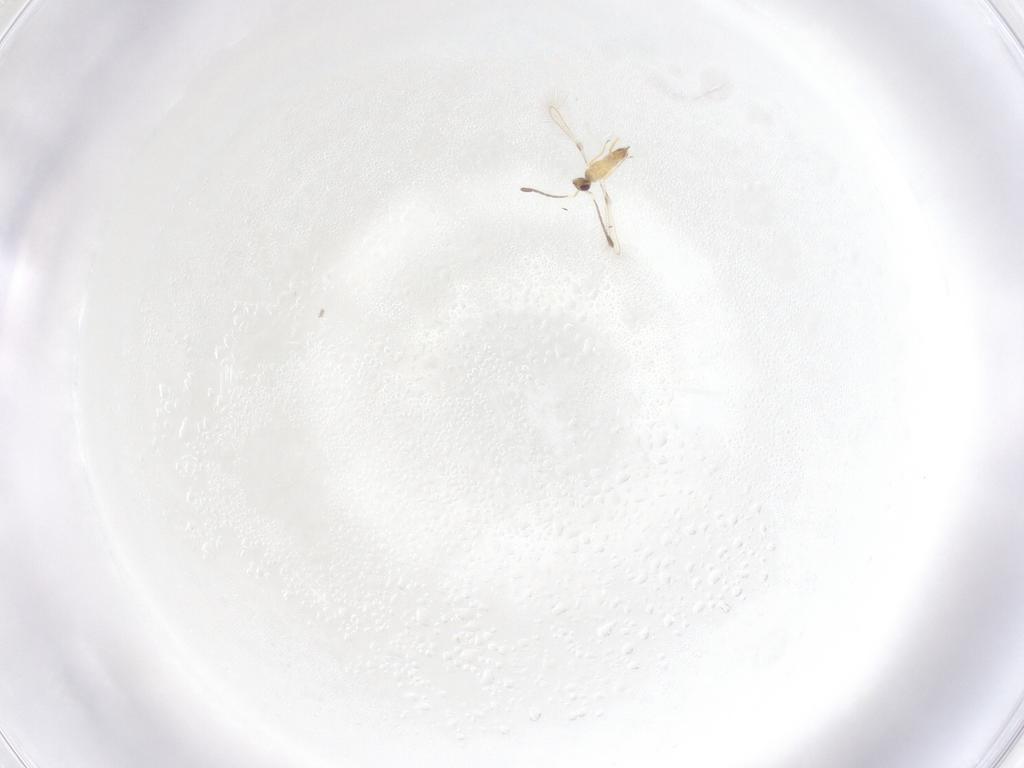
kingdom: Animalia
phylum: Arthropoda
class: Insecta
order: Hymenoptera
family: Mymaridae
